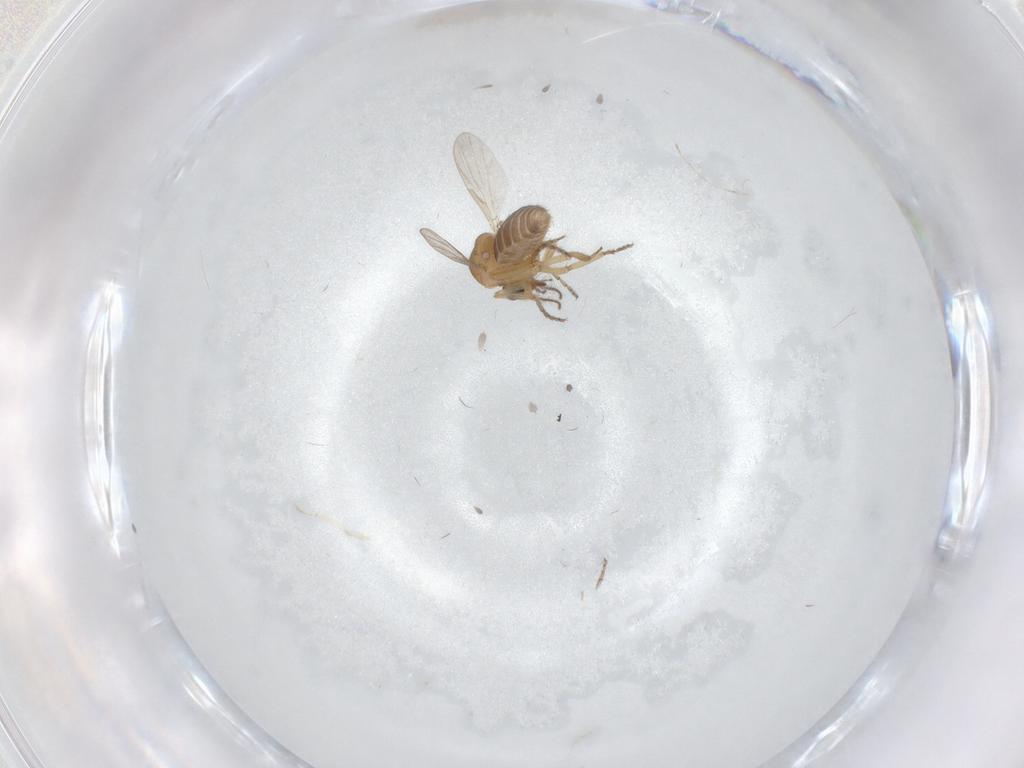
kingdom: Animalia
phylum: Arthropoda
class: Insecta
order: Diptera
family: Ceratopogonidae
